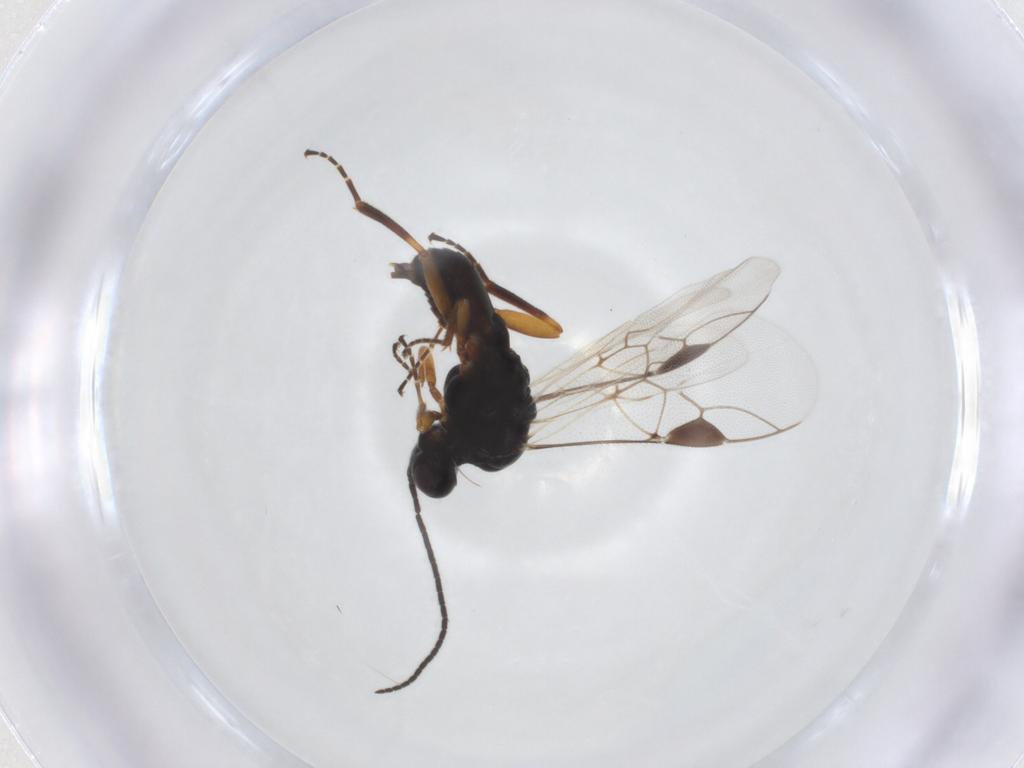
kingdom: Animalia
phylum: Arthropoda
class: Insecta
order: Hymenoptera
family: Braconidae
